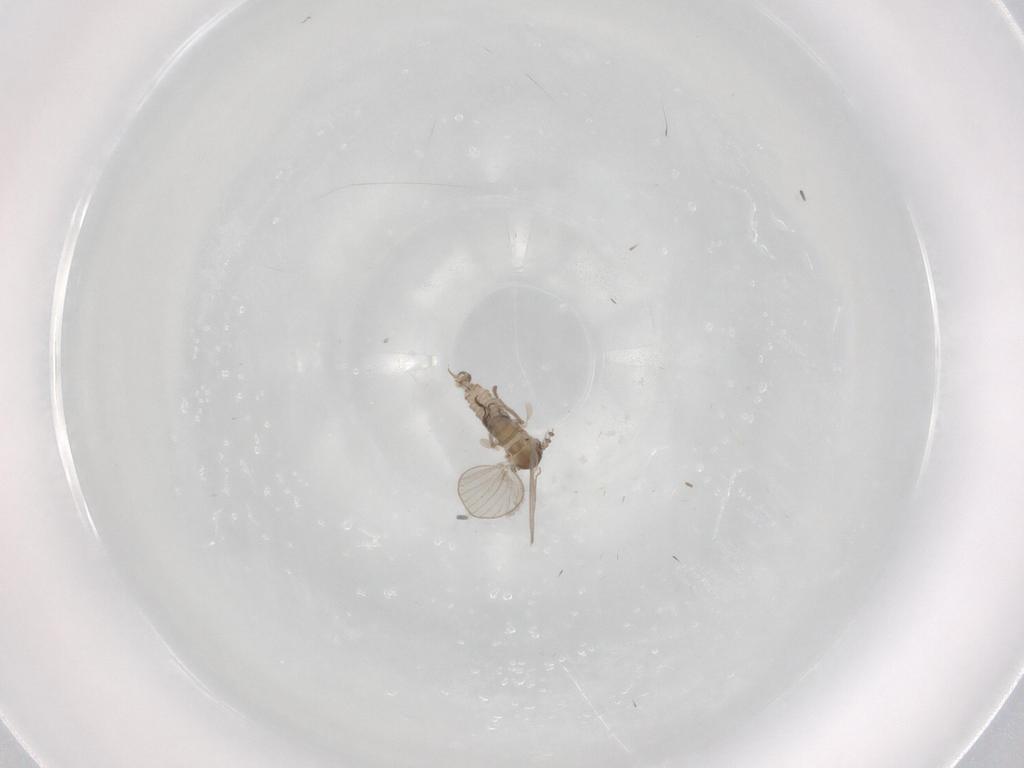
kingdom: Animalia
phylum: Arthropoda
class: Insecta
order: Diptera
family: Psychodidae
